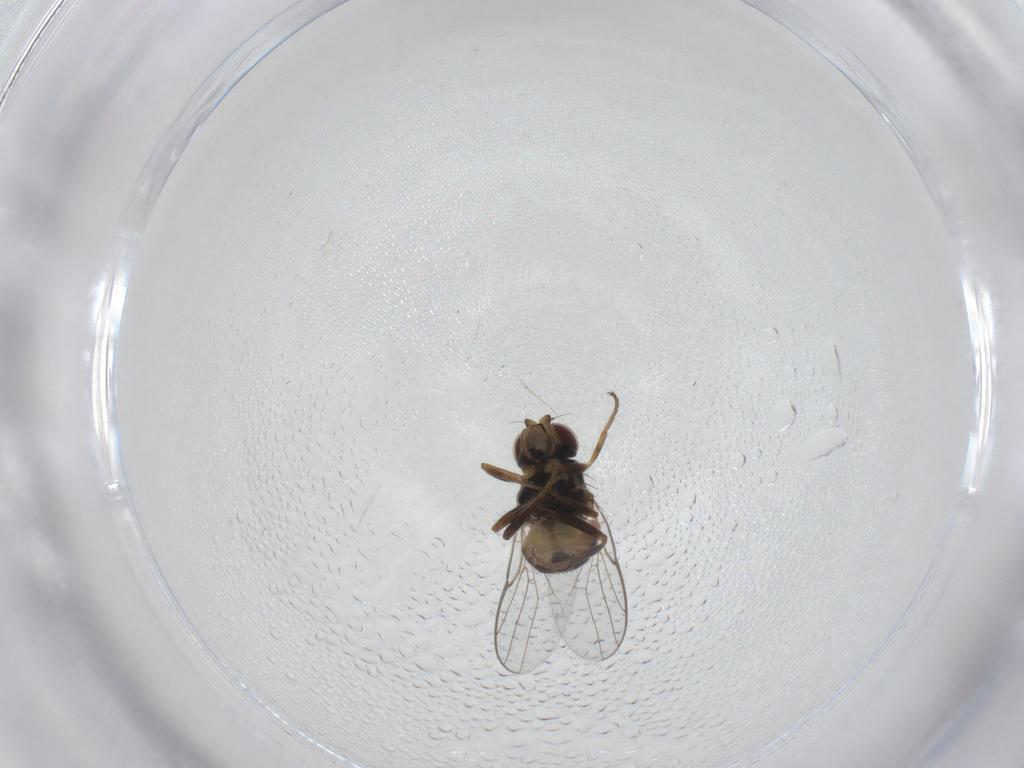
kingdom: Animalia
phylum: Arthropoda
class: Insecta
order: Diptera
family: Chloropidae
